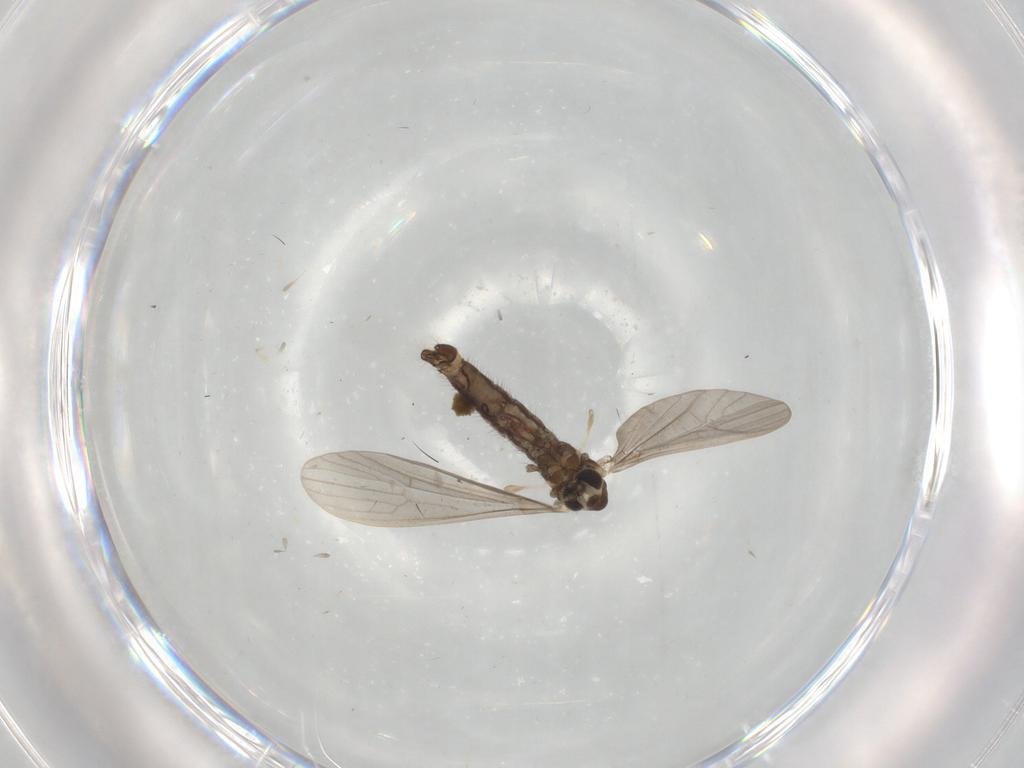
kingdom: Animalia
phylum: Arthropoda
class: Insecta
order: Diptera
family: Limoniidae
